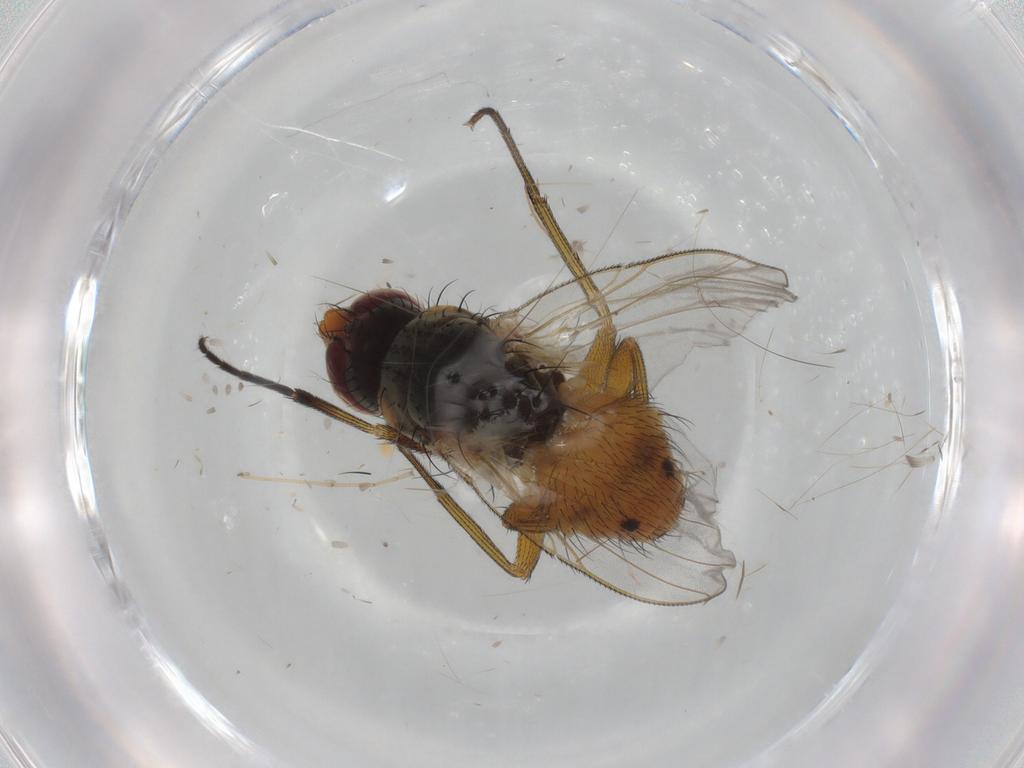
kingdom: Animalia
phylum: Arthropoda
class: Insecta
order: Diptera
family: Muscidae
